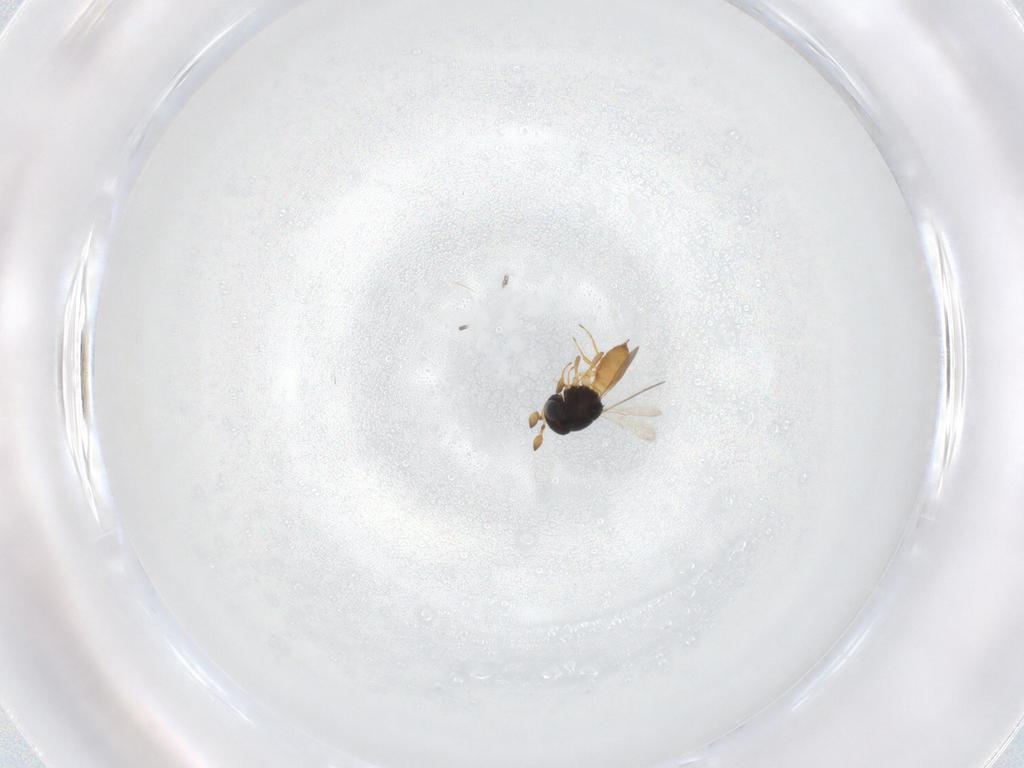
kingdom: Animalia
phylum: Arthropoda
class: Insecta
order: Hymenoptera
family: Scelionidae
